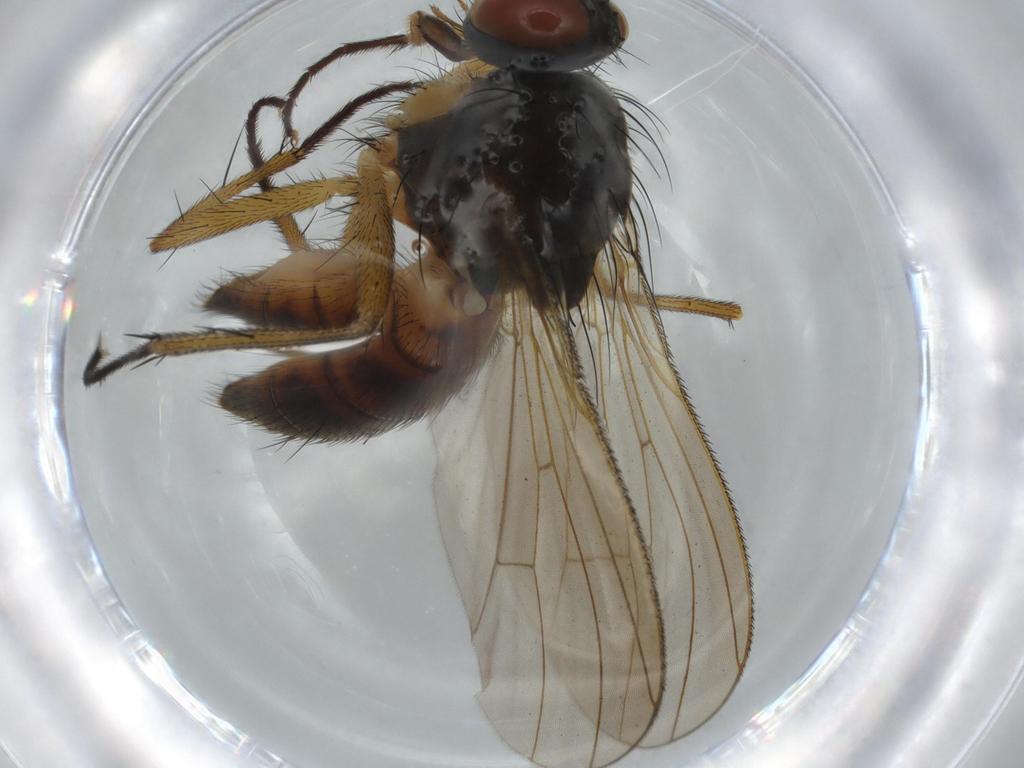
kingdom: Animalia
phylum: Arthropoda
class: Insecta
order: Diptera
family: Muscidae
